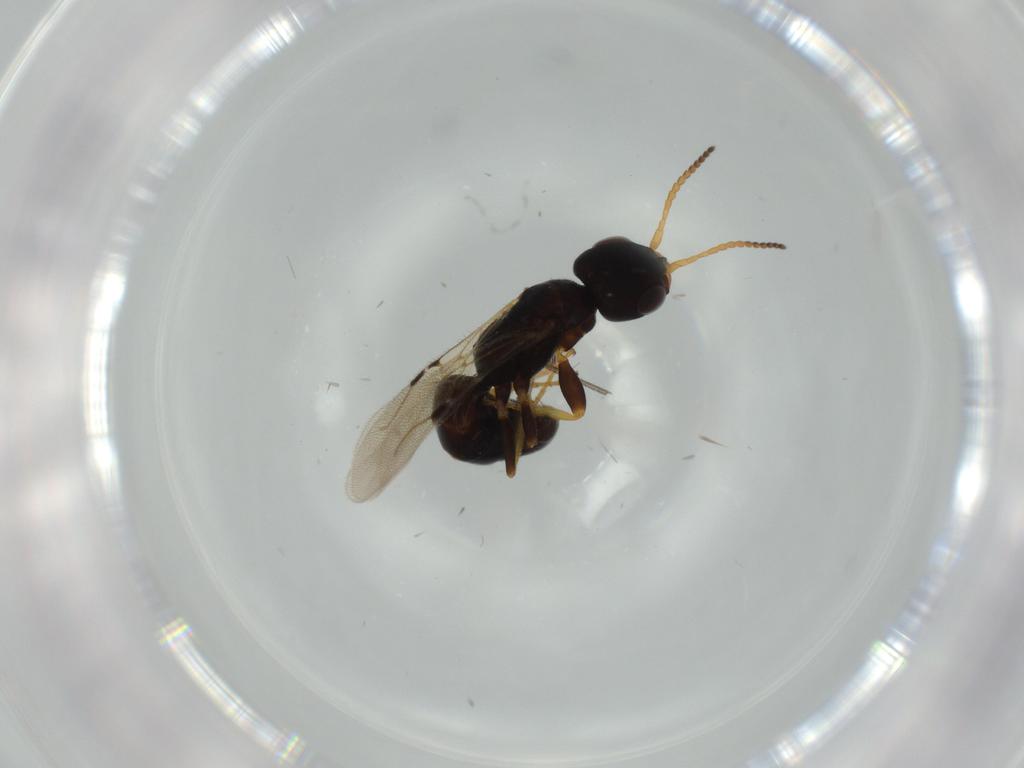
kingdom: Animalia
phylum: Arthropoda
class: Insecta
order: Hymenoptera
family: Bethylidae
